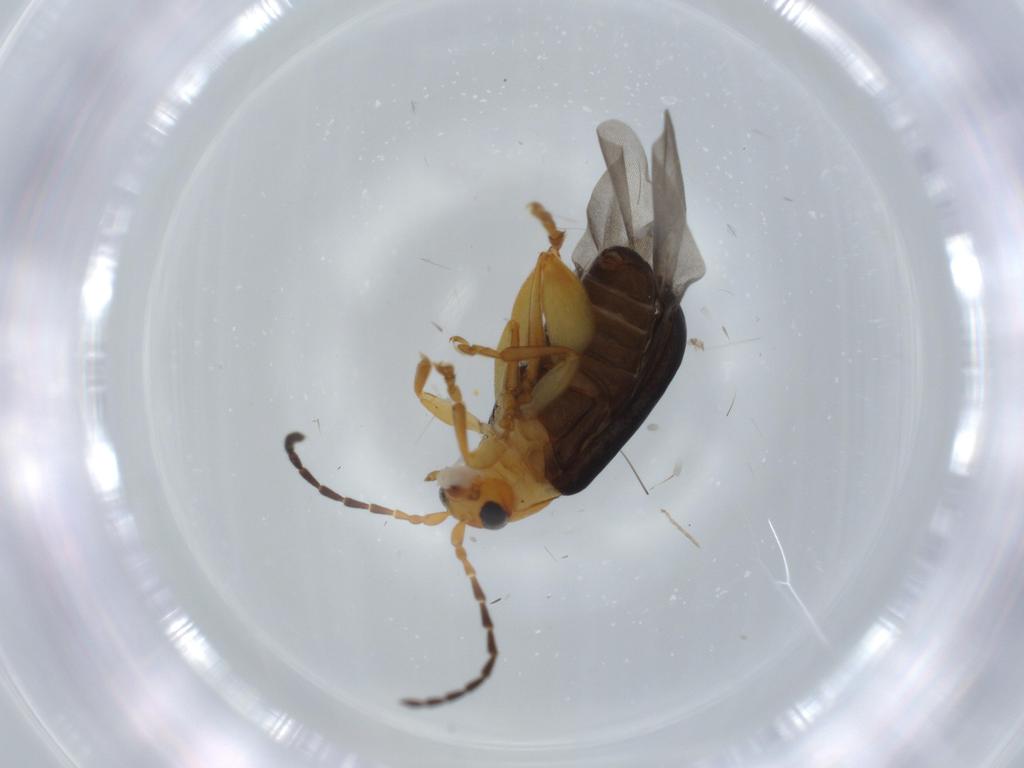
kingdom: Animalia
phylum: Arthropoda
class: Insecta
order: Coleoptera
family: Chrysomelidae
